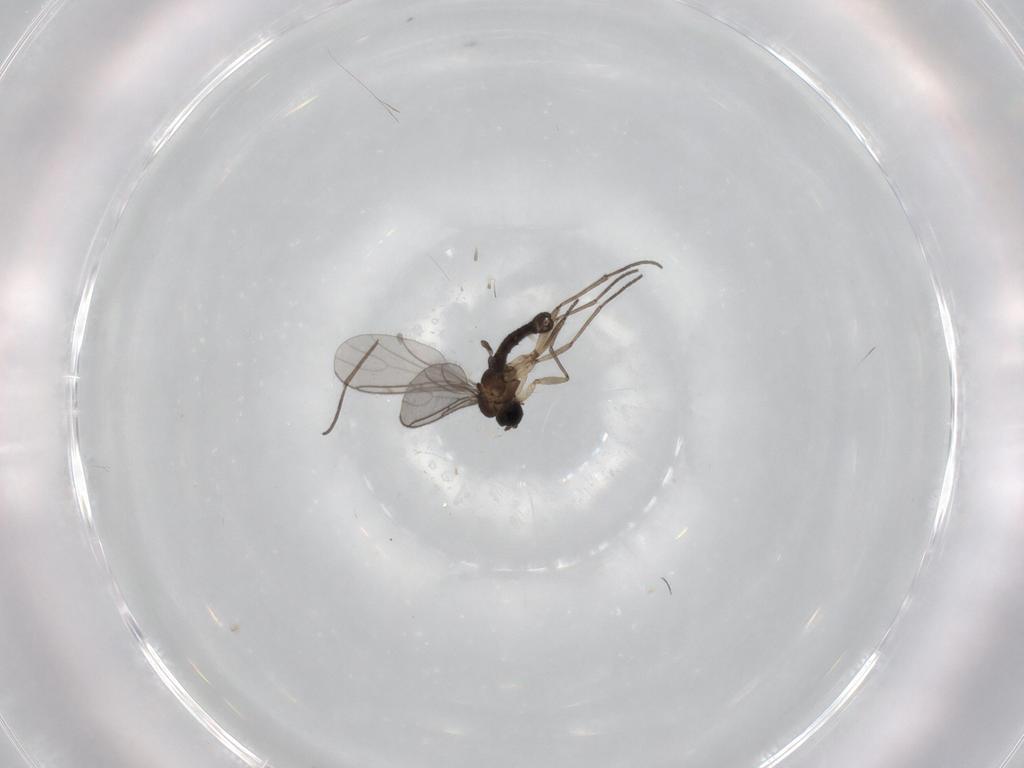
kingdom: Animalia
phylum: Arthropoda
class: Insecta
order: Diptera
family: Sciaridae
